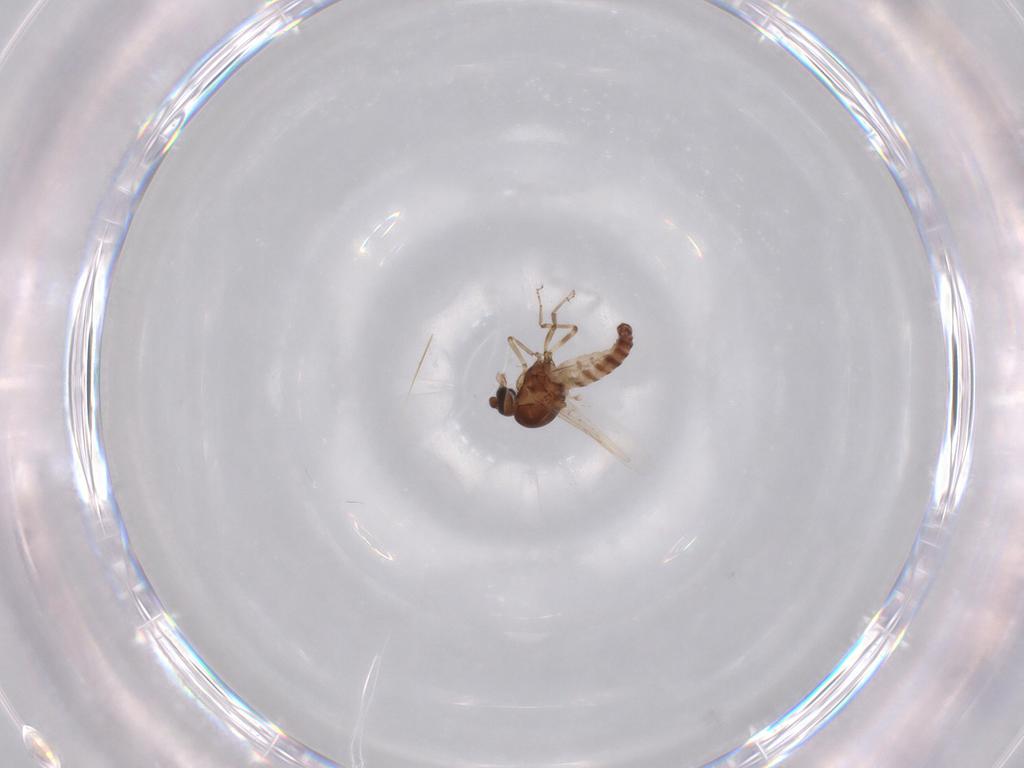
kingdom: Animalia
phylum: Arthropoda
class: Insecta
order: Diptera
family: Ceratopogonidae
